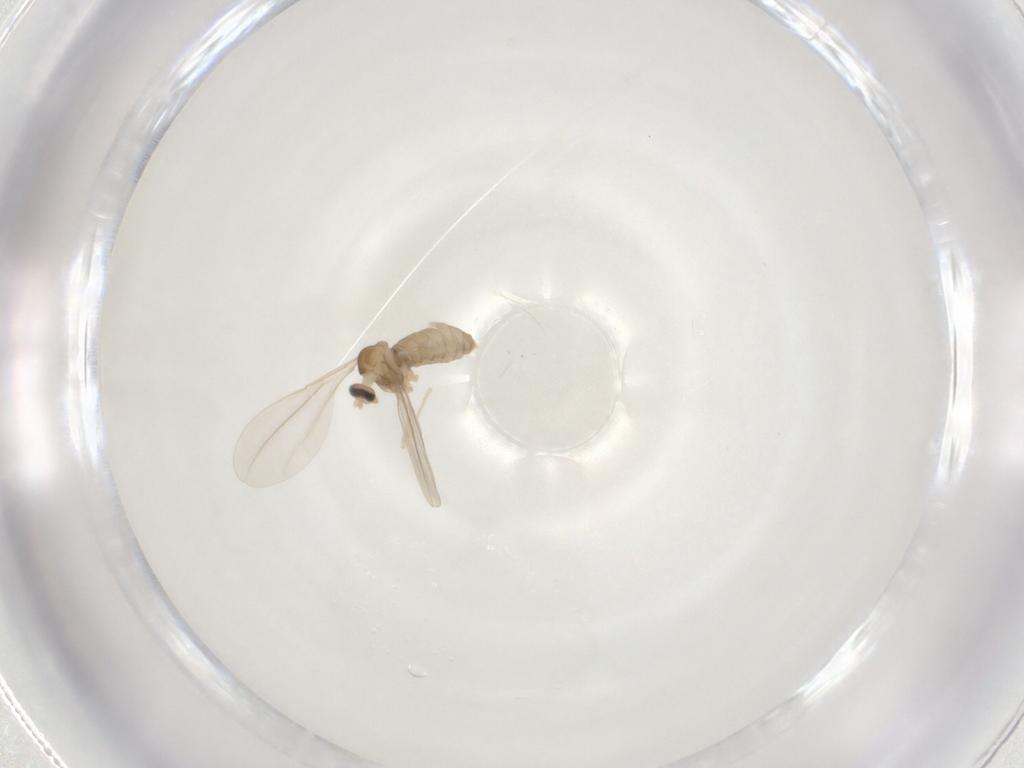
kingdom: Animalia
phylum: Arthropoda
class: Insecta
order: Diptera
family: Cecidomyiidae
